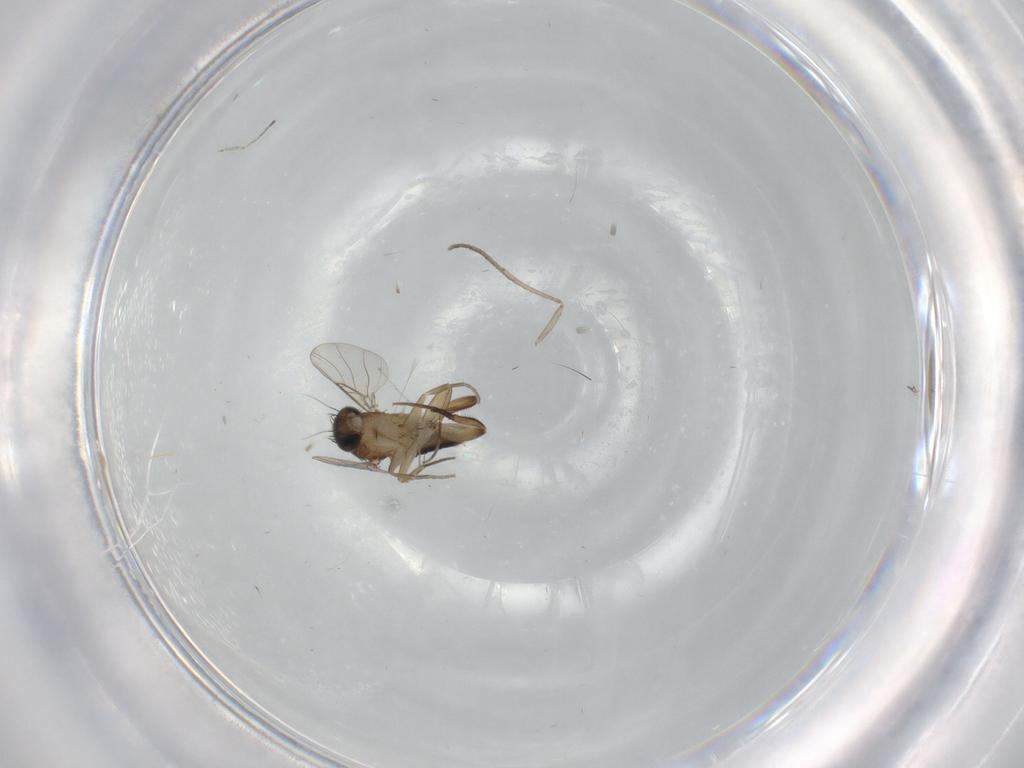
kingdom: Animalia
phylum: Arthropoda
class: Insecta
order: Diptera
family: Phoridae
